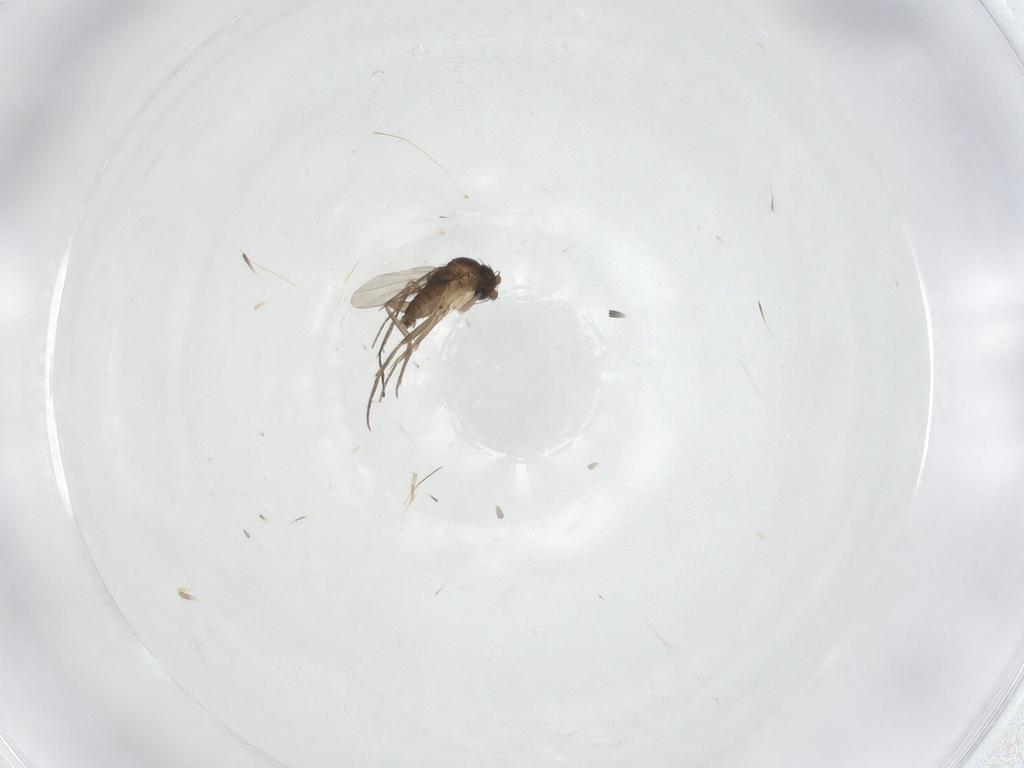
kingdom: Animalia
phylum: Arthropoda
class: Insecta
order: Diptera
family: Phoridae
